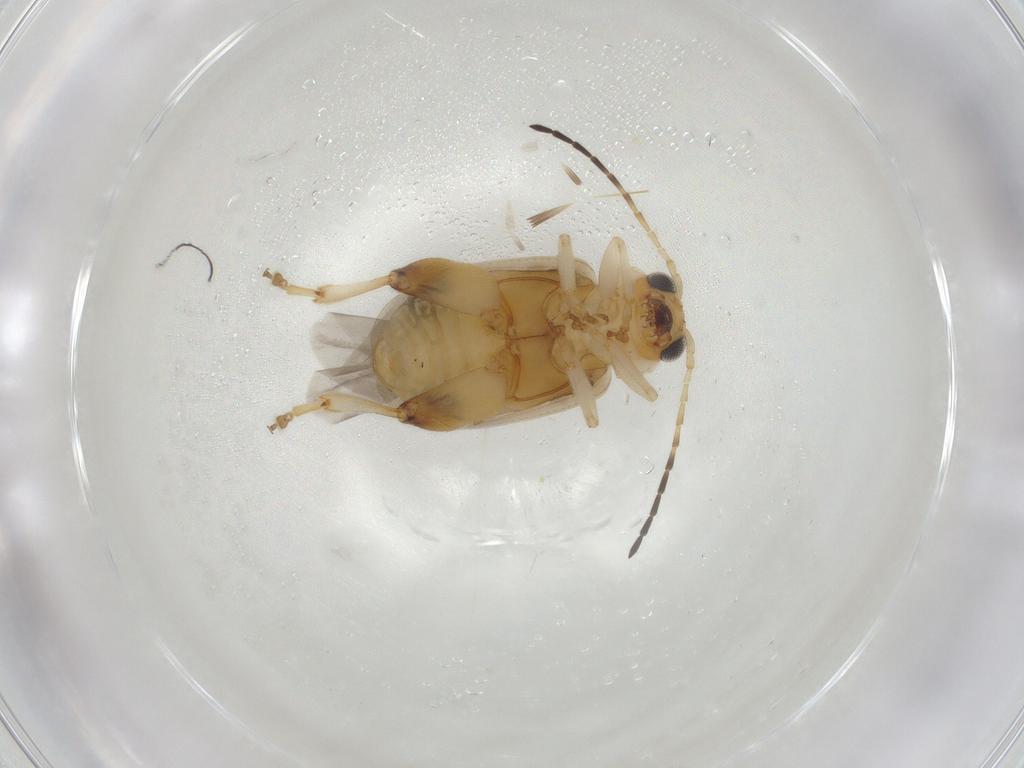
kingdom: Animalia
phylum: Arthropoda
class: Insecta
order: Coleoptera
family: Chrysomelidae
